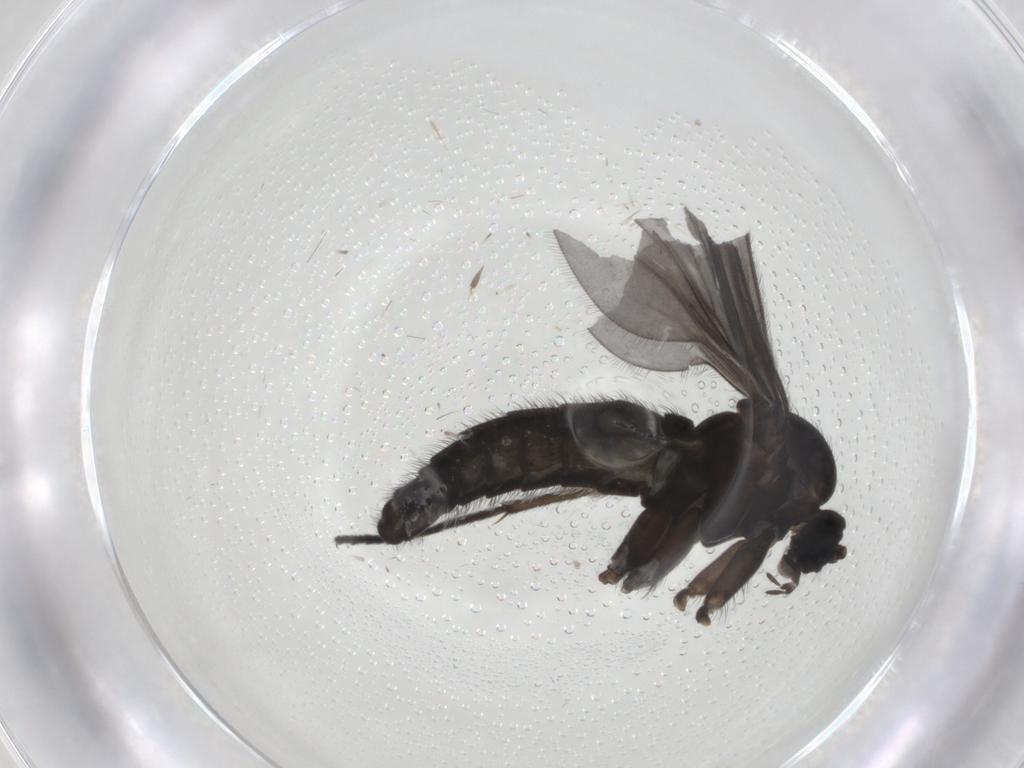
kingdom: Animalia
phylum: Arthropoda
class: Insecta
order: Diptera
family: Sciaridae
